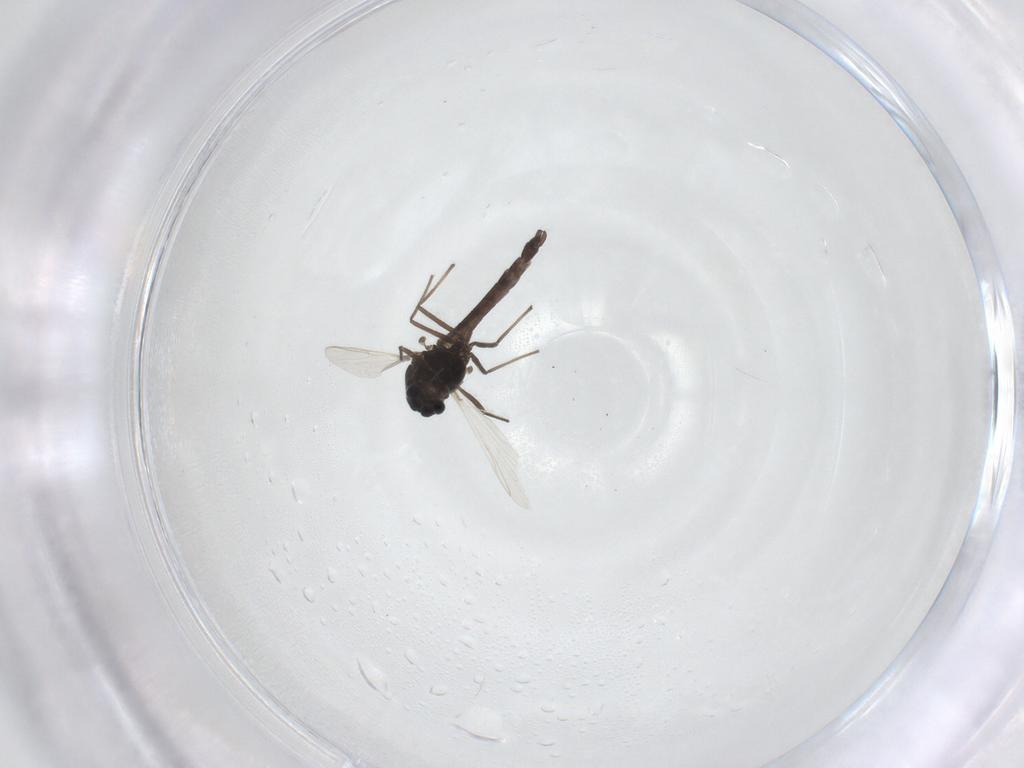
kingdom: Animalia
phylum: Arthropoda
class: Insecta
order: Diptera
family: Chironomidae
